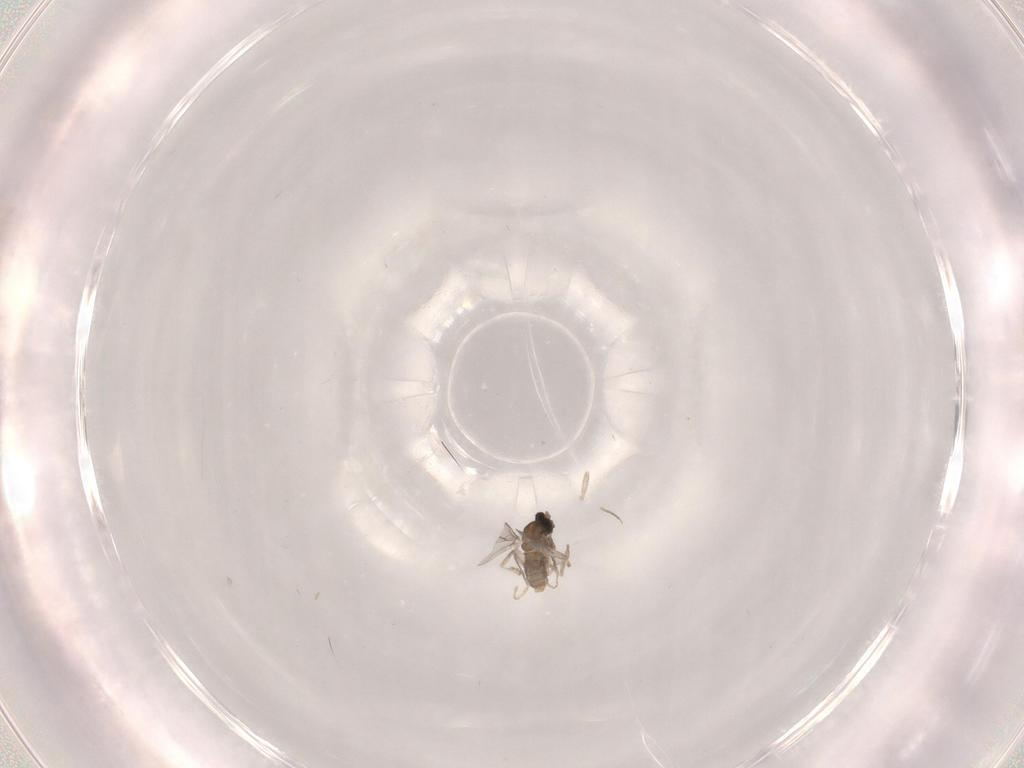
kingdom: Animalia
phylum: Arthropoda
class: Insecta
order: Diptera
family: Cecidomyiidae
